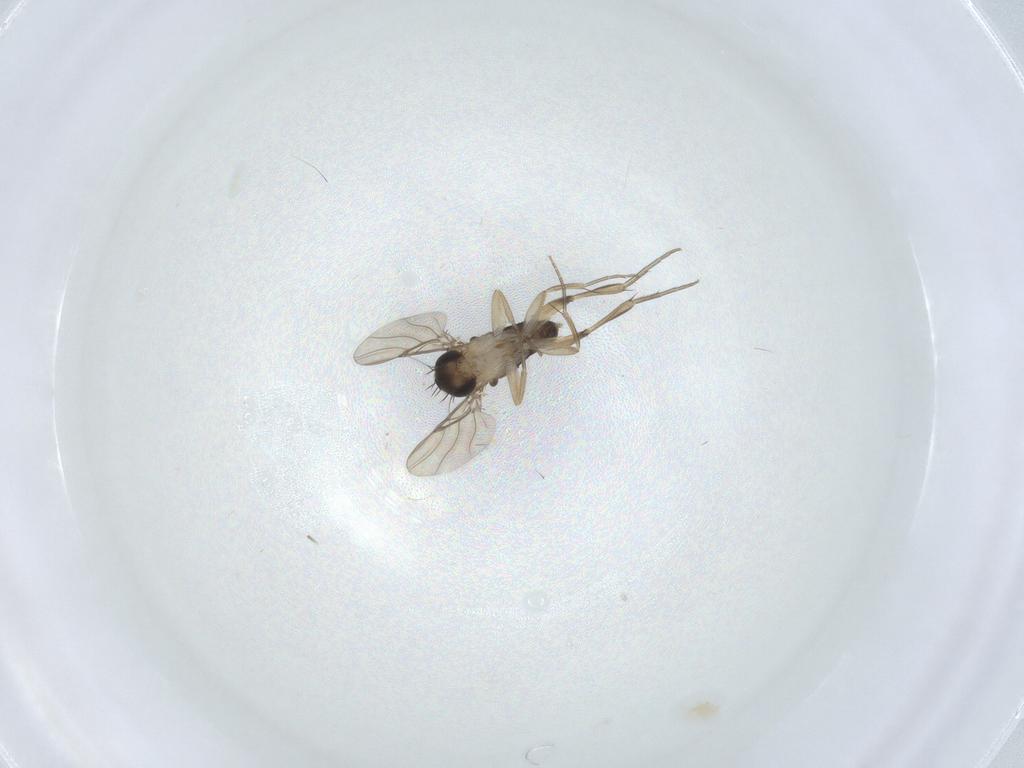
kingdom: Animalia
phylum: Arthropoda
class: Insecta
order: Diptera
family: Phoridae
